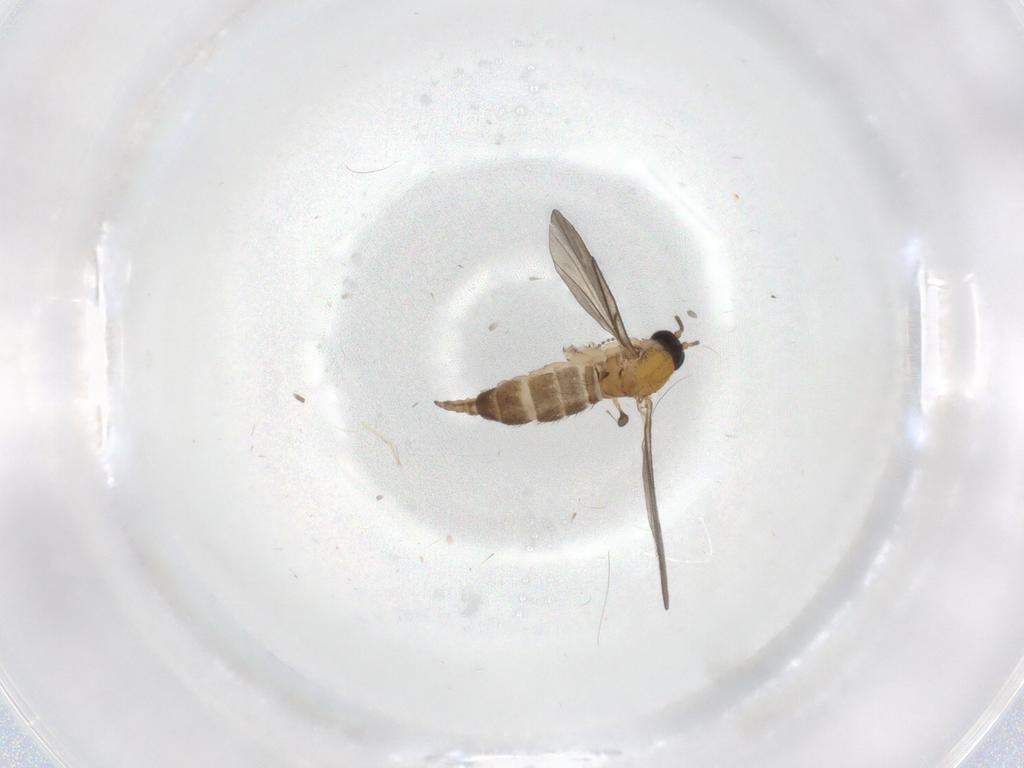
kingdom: Animalia
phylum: Arthropoda
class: Insecta
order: Diptera
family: Sciaridae
